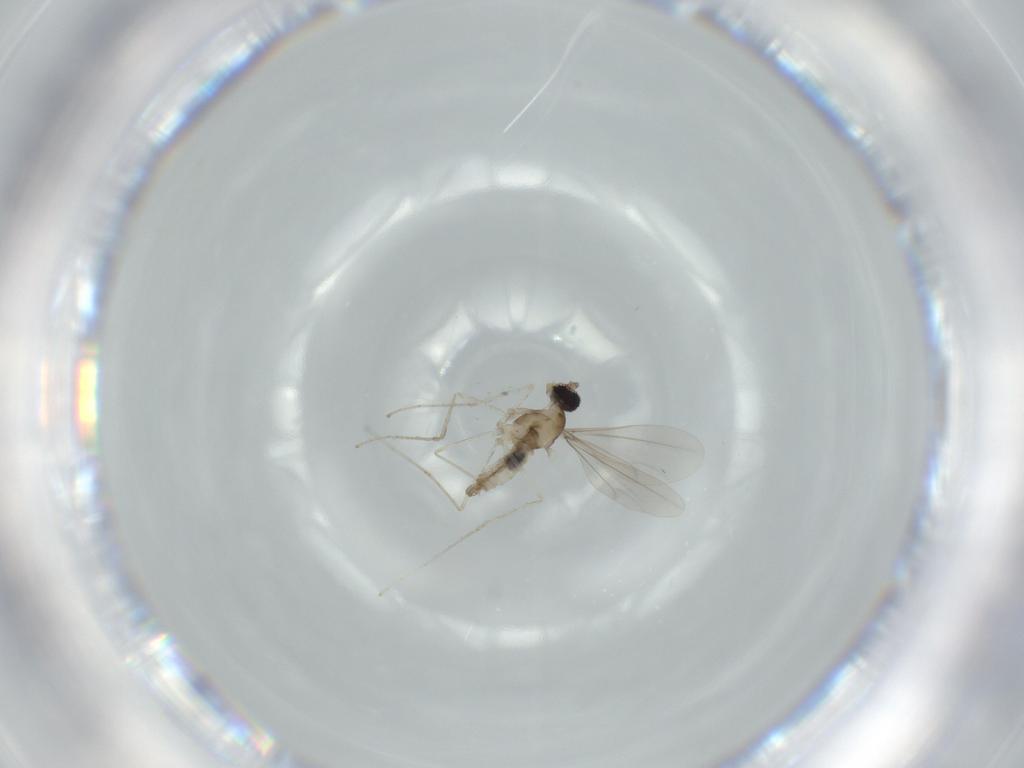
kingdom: Animalia
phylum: Arthropoda
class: Insecta
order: Diptera
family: Cecidomyiidae
